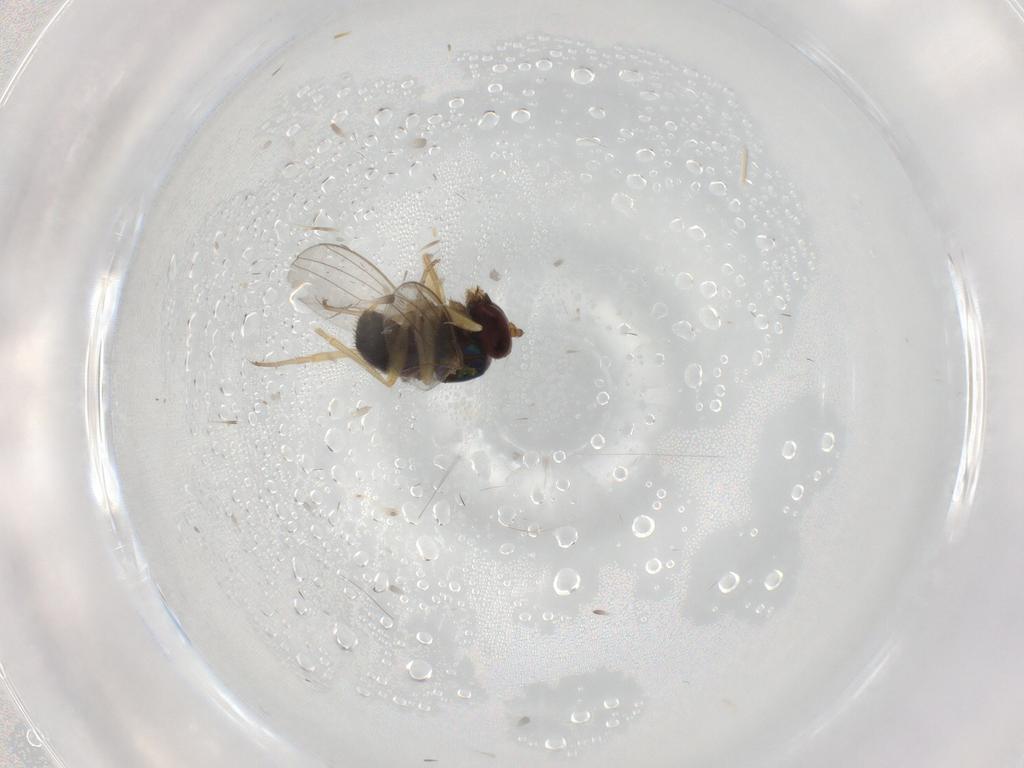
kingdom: Animalia
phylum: Arthropoda
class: Insecta
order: Diptera
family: Dolichopodidae
